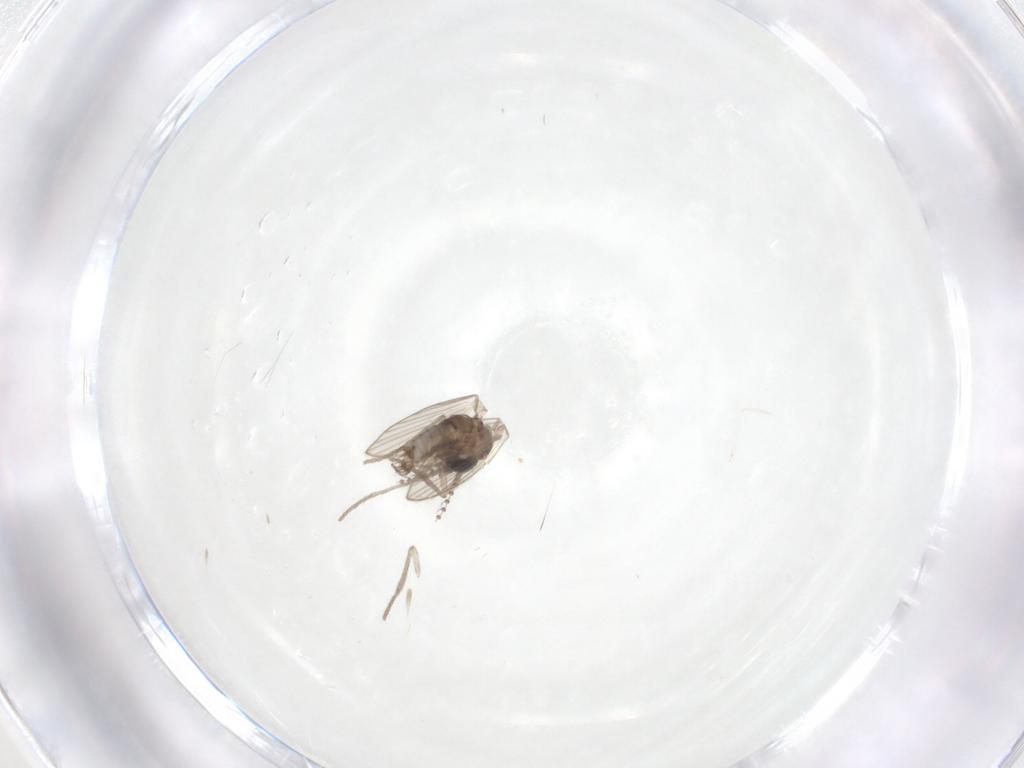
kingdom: Animalia
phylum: Arthropoda
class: Insecta
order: Diptera
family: Psychodidae
